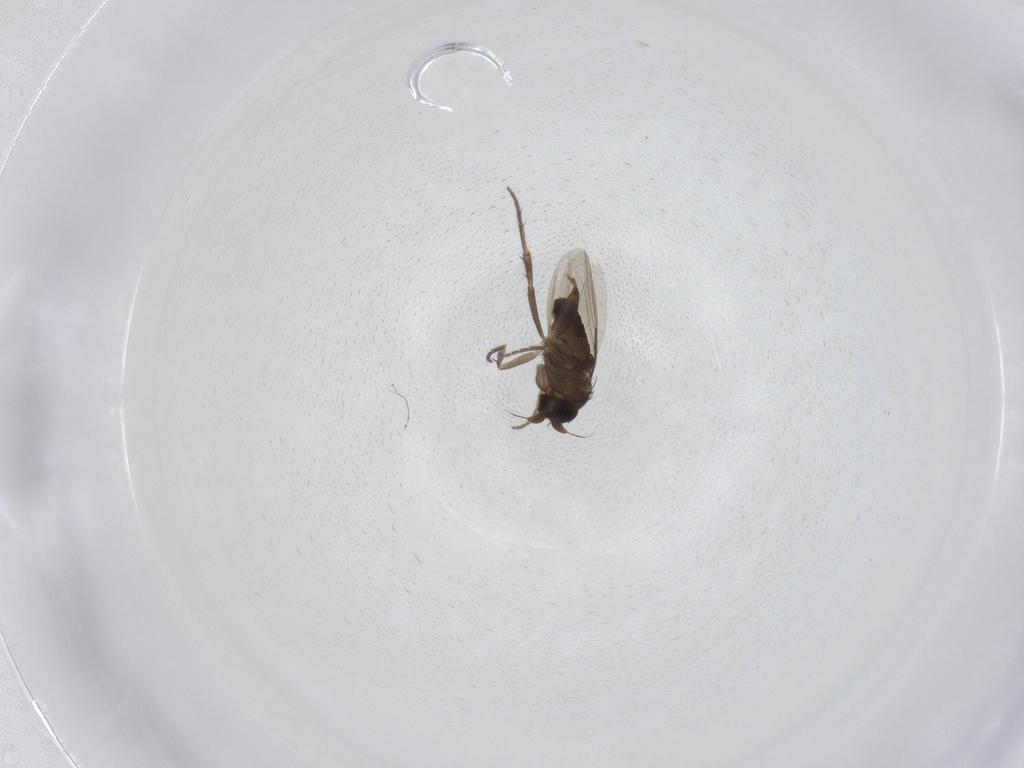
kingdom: Animalia
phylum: Arthropoda
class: Insecta
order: Diptera
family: Phoridae
